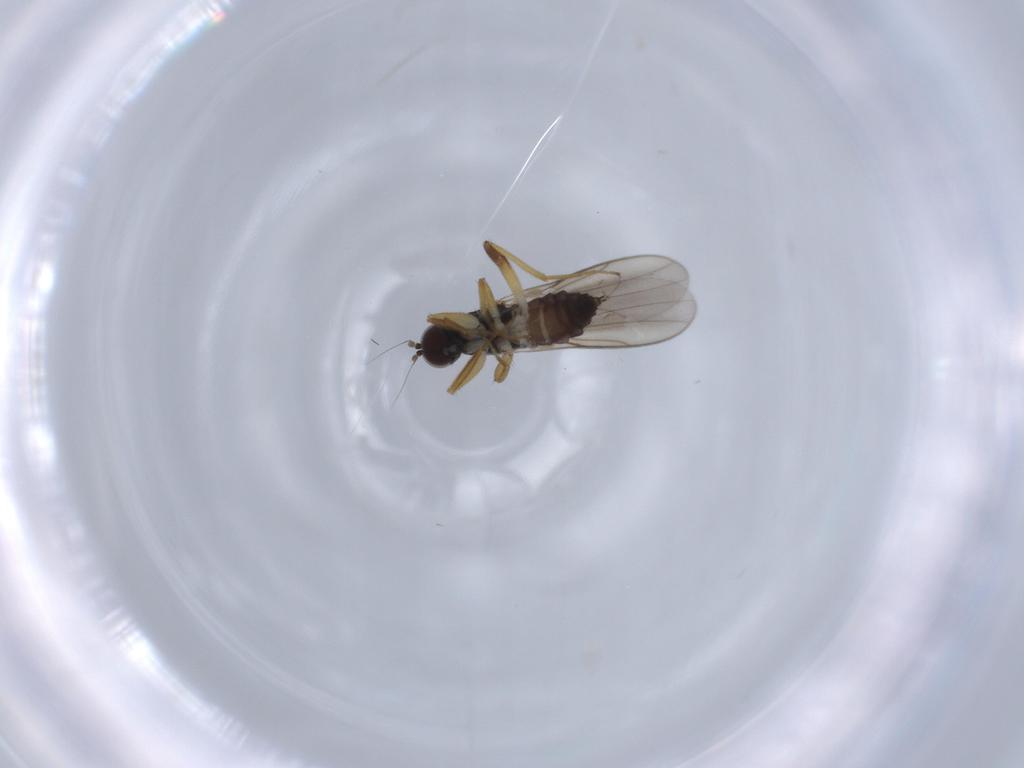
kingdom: Animalia
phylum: Arthropoda
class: Insecta
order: Diptera
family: Hybotidae
